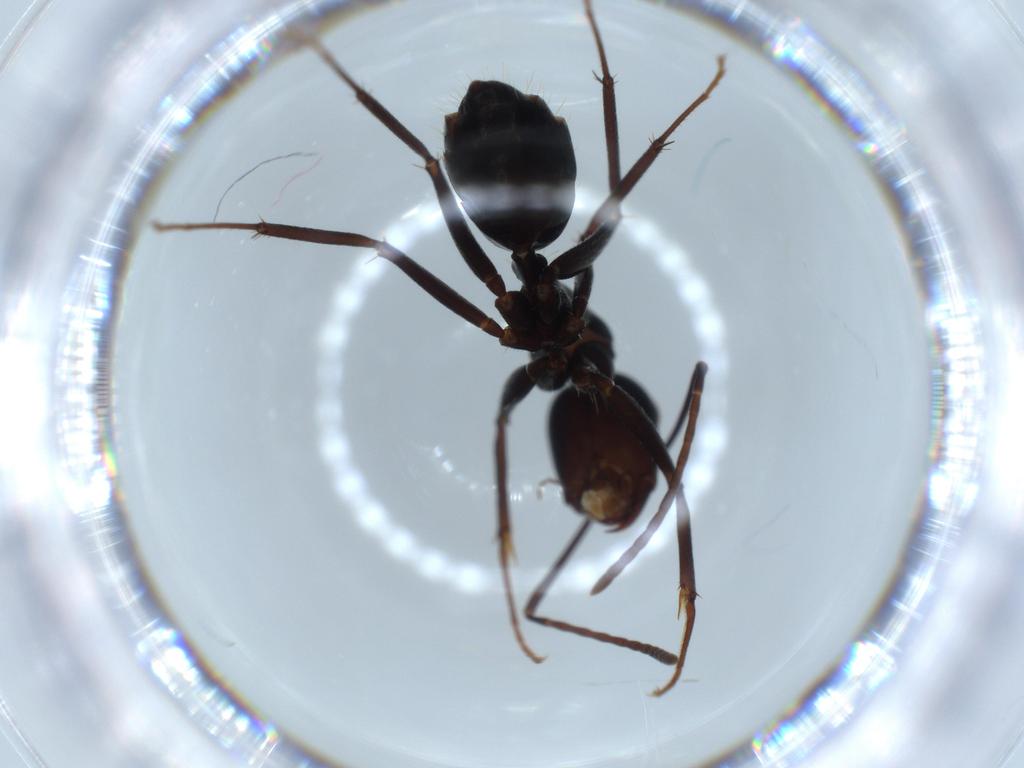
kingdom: Animalia
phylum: Arthropoda
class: Insecta
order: Hymenoptera
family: Formicidae
